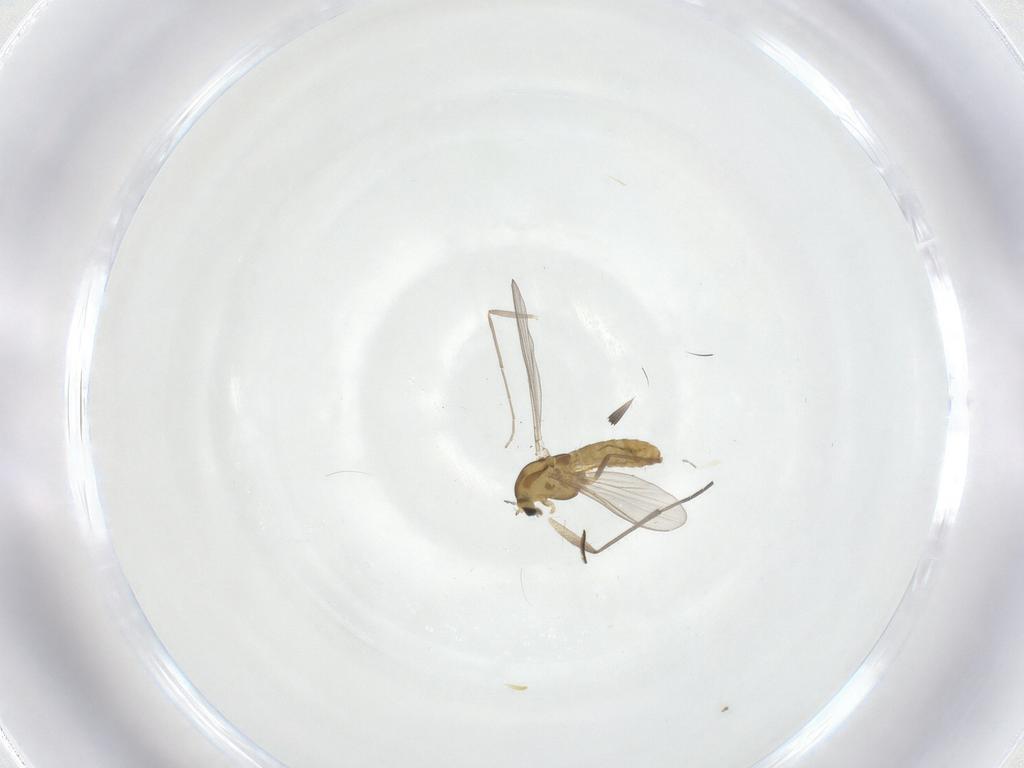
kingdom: Animalia
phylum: Arthropoda
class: Insecta
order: Diptera
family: Chironomidae
